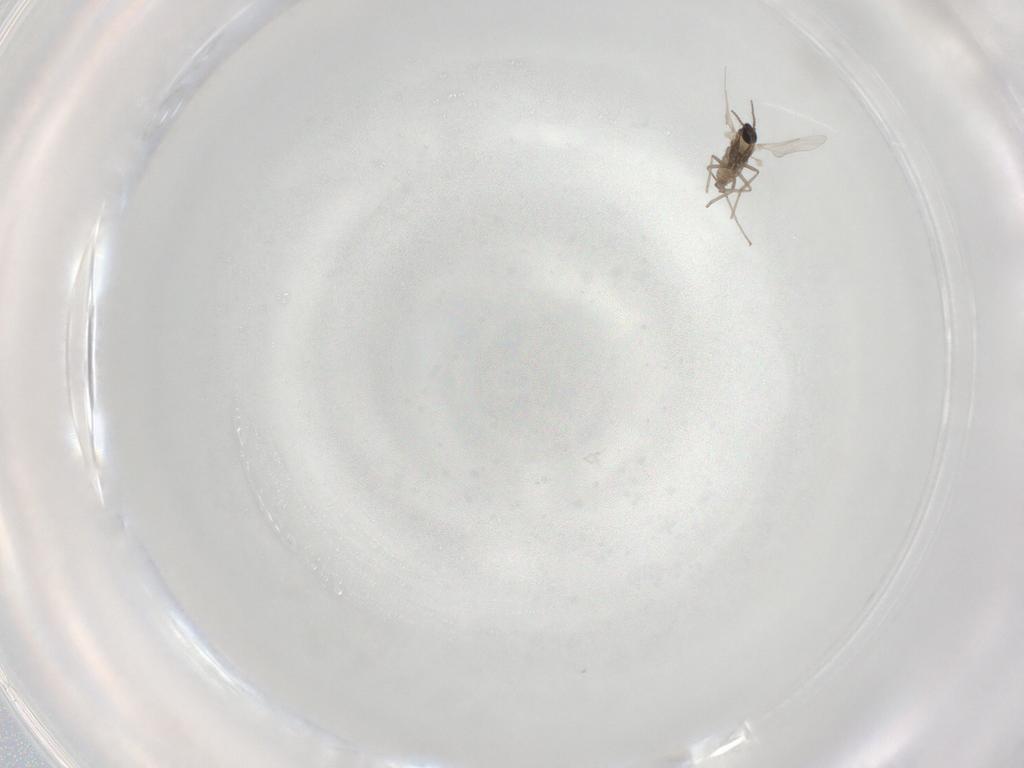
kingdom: Animalia
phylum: Arthropoda
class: Insecta
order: Diptera
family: Cecidomyiidae
